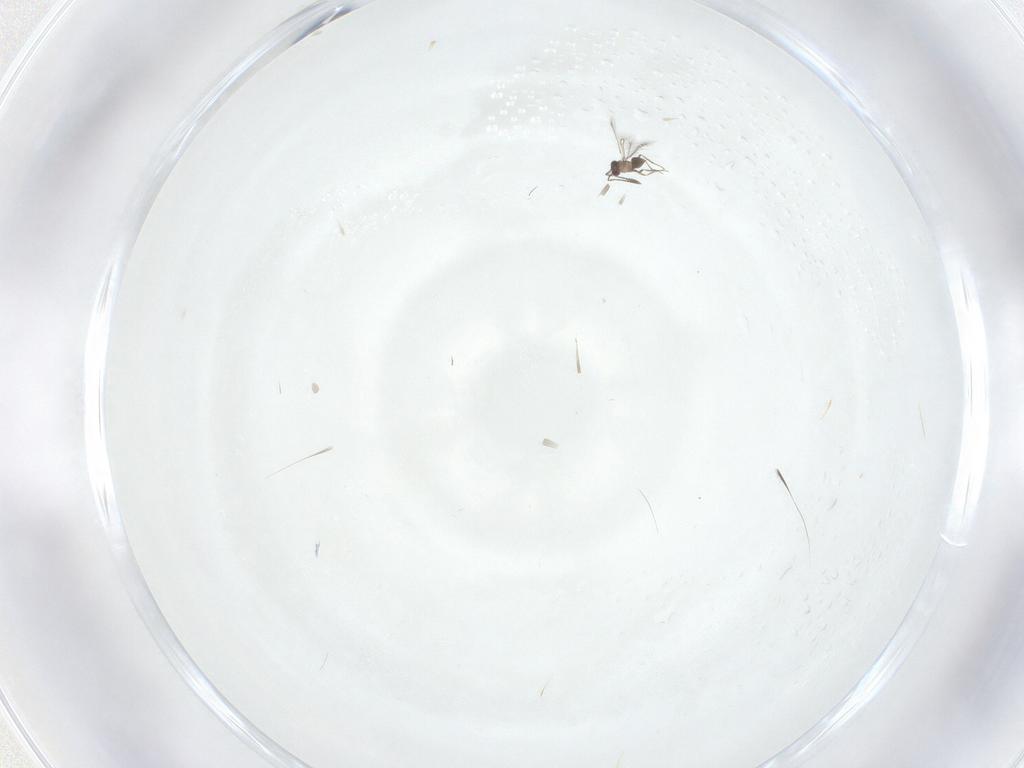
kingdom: Animalia
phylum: Arthropoda
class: Insecta
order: Hymenoptera
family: Mymaridae
